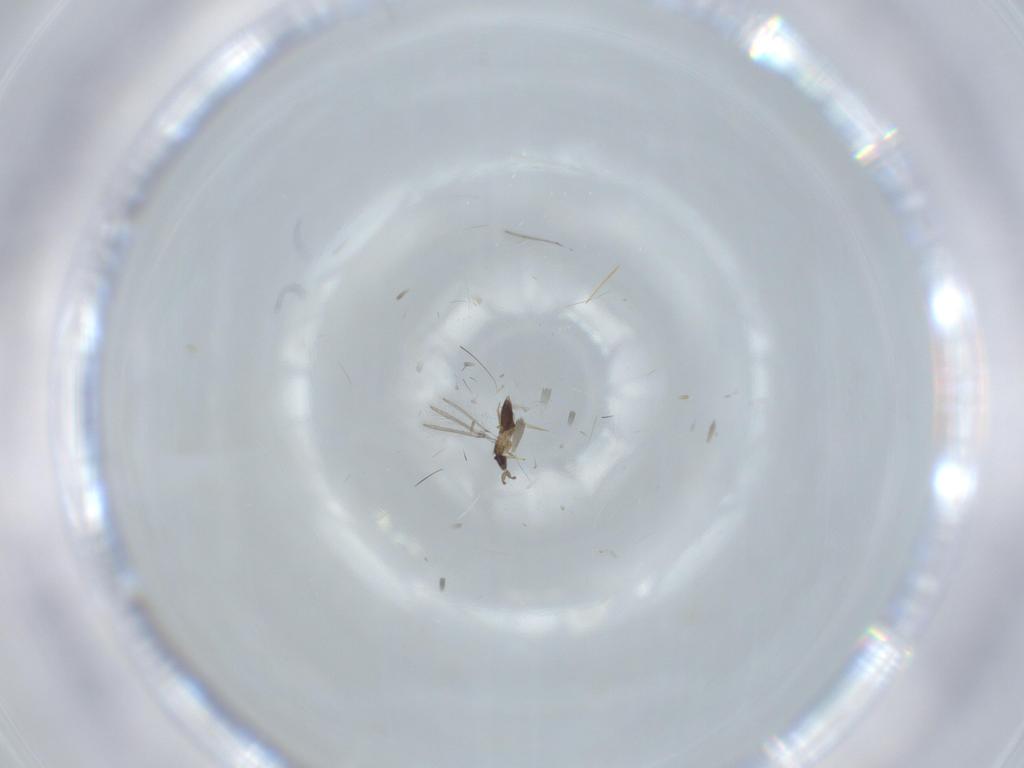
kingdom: Animalia
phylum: Arthropoda
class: Insecta
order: Hymenoptera
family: Mymaridae
